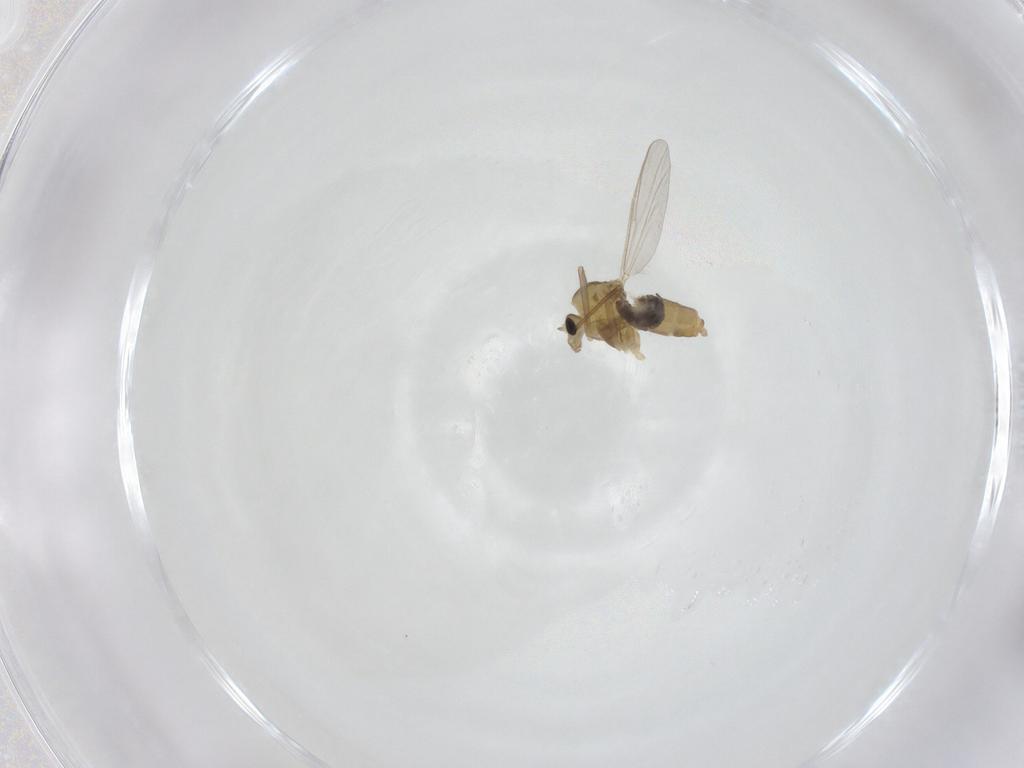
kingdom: Animalia
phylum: Arthropoda
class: Insecta
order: Diptera
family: Chironomidae
